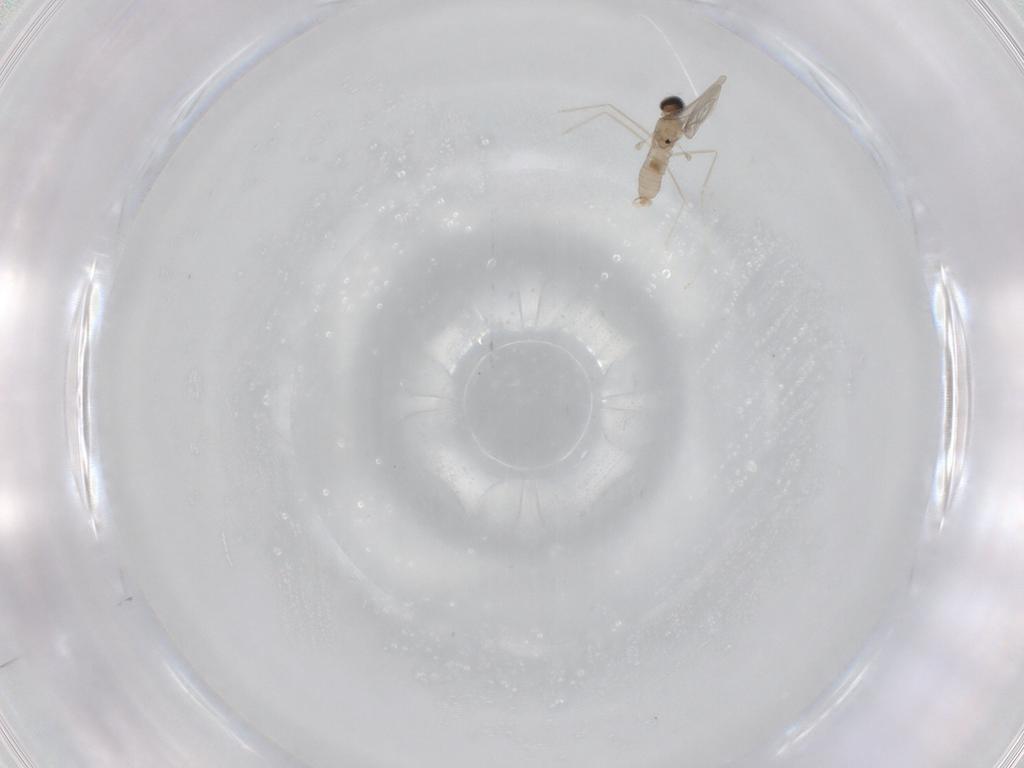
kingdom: Animalia
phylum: Arthropoda
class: Insecta
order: Diptera
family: Cecidomyiidae
